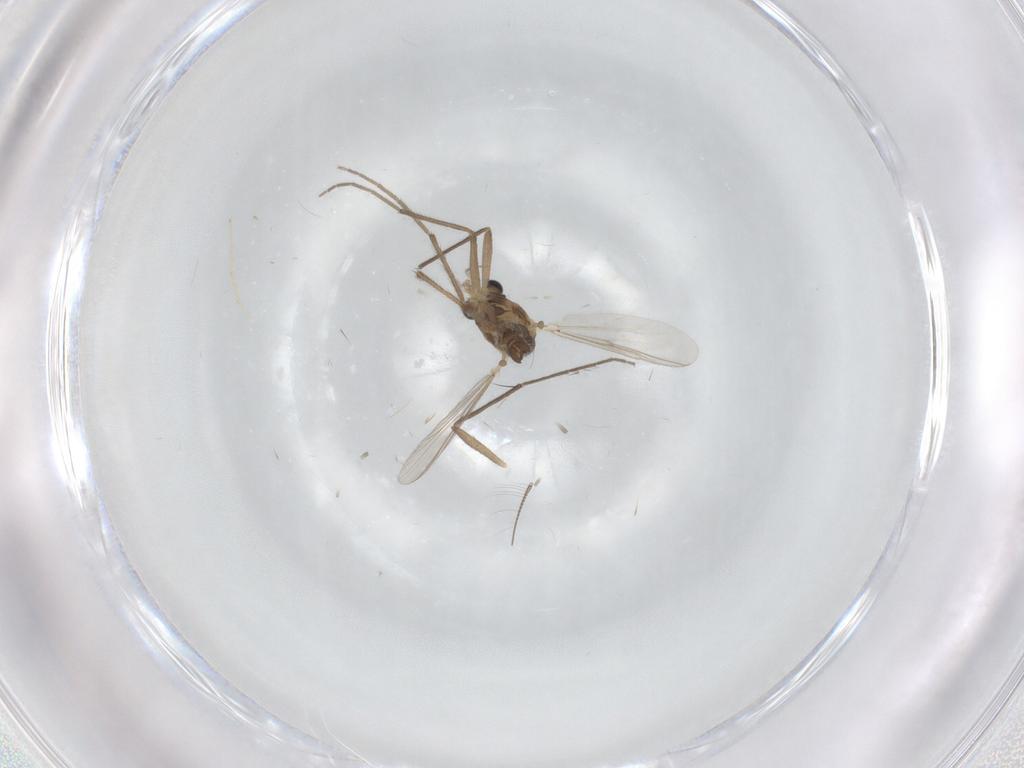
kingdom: Animalia
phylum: Arthropoda
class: Insecta
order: Diptera
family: Chironomidae
